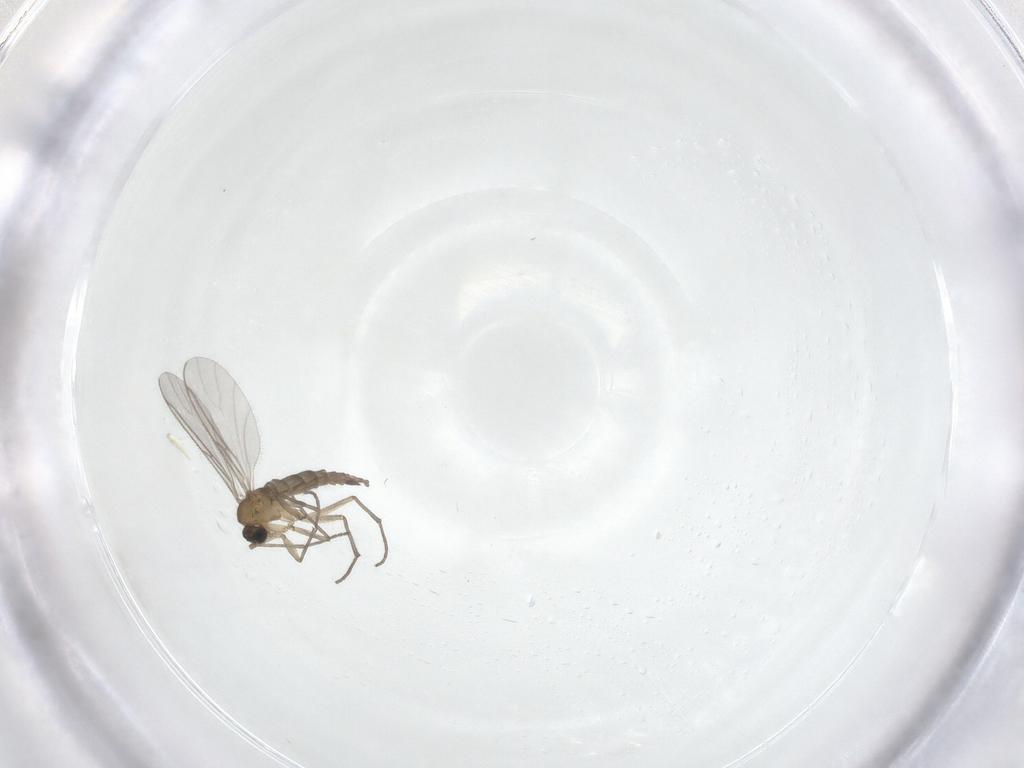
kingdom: Animalia
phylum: Arthropoda
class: Insecta
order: Diptera
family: Sciaridae
